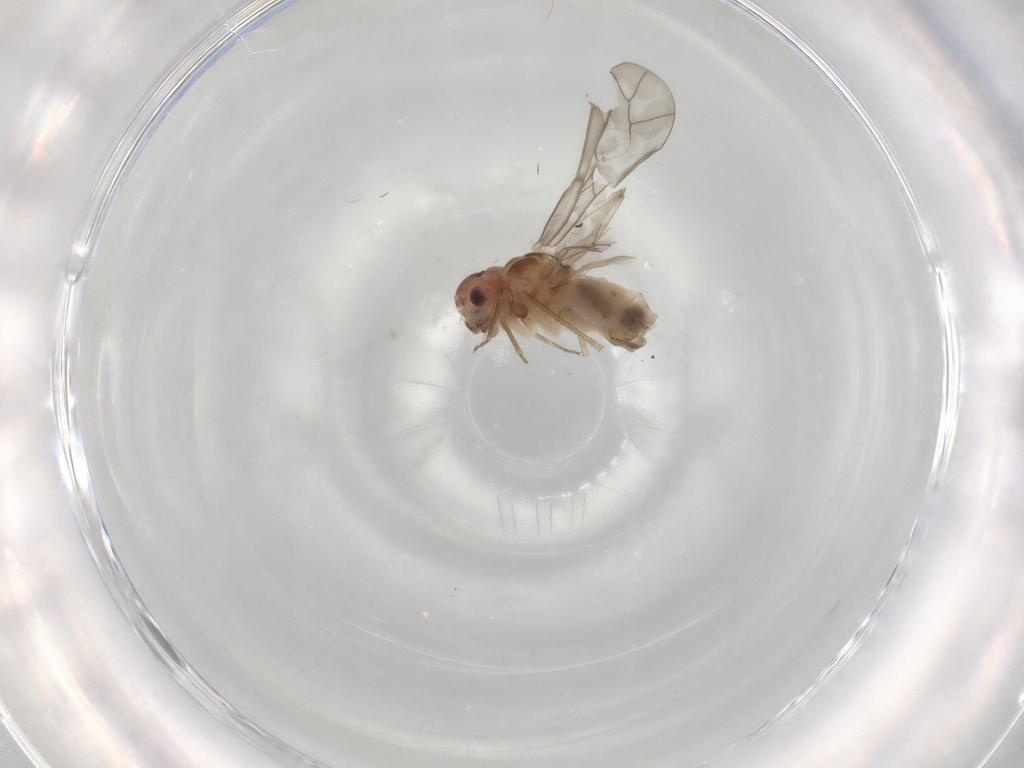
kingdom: Animalia
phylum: Arthropoda
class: Insecta
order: Psocodea
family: Peripsocidae
